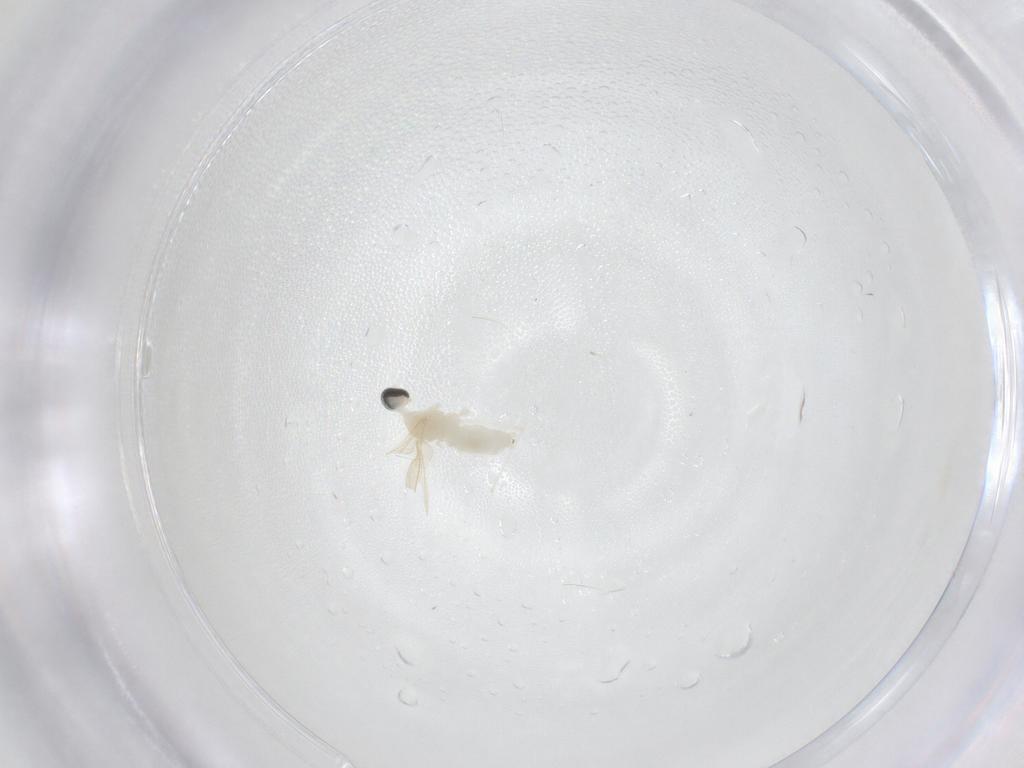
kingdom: Animalia
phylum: Arthropoda
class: Insecta
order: Diptera
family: Cecidomyiidae
